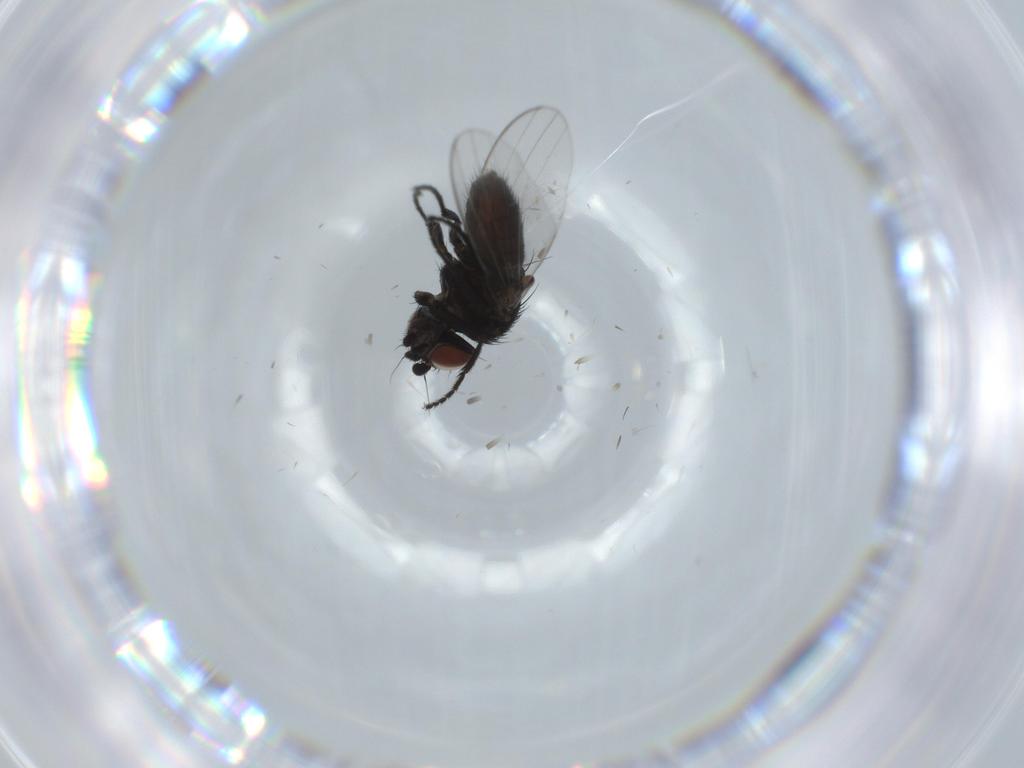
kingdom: Animalia
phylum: Arthropoda
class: Insecta
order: Diptera
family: Milichiidae
